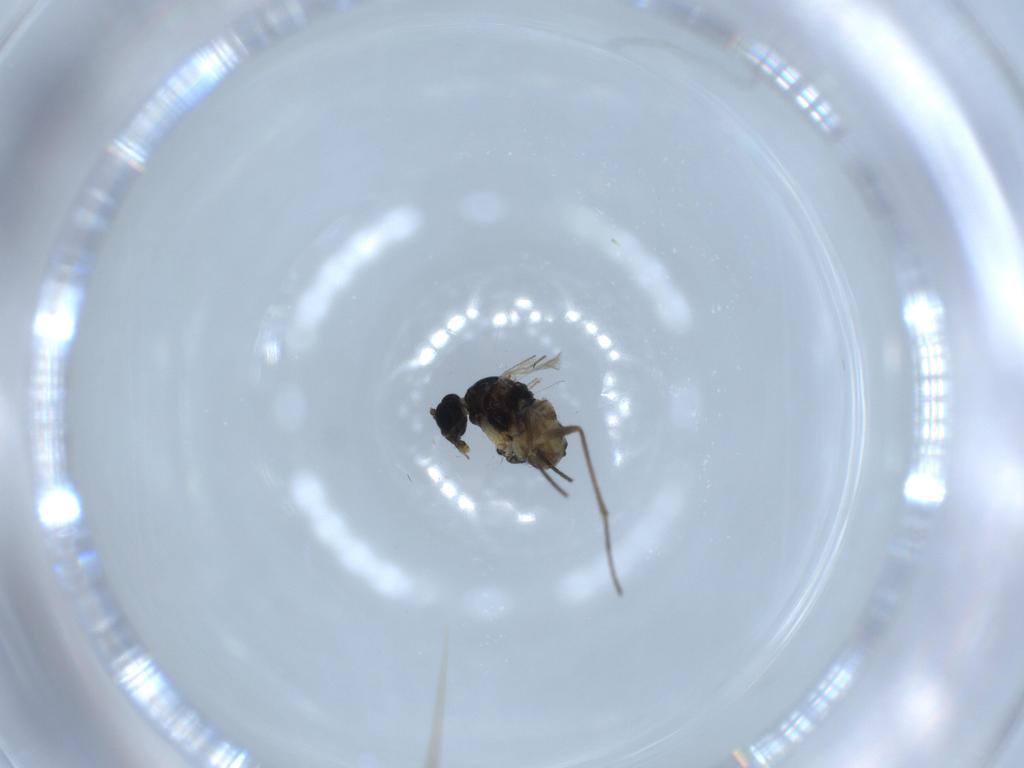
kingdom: Animalia
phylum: Arthropoda
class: Insecta
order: Diptera
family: Sciaridae
